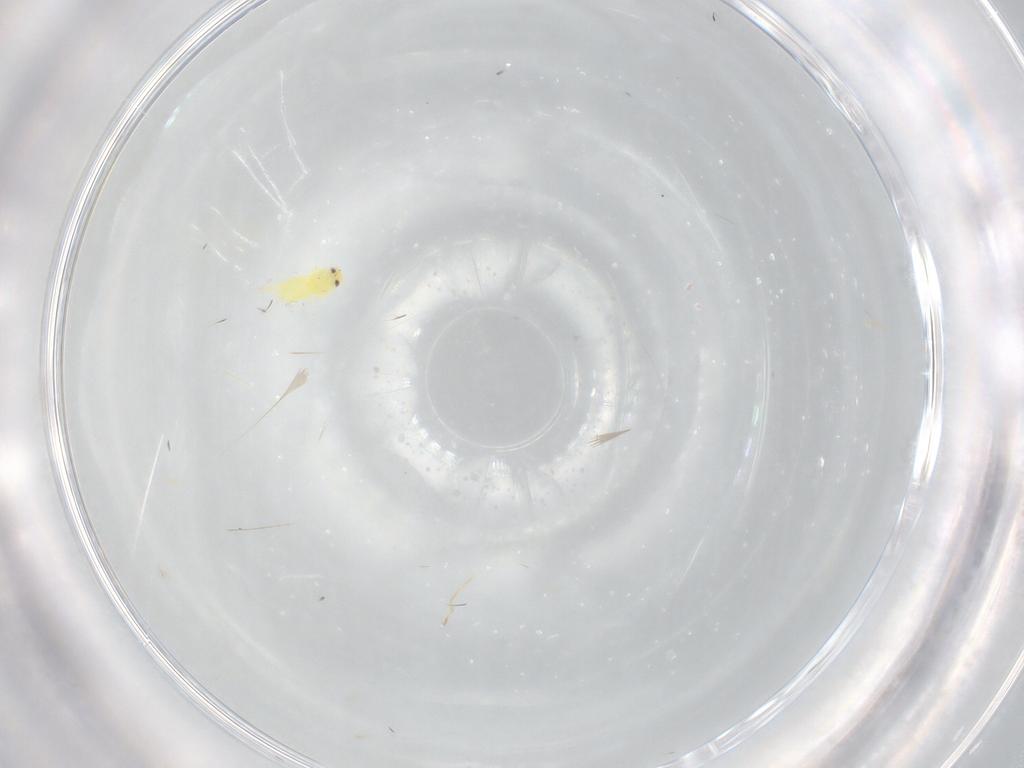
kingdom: Animalia
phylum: Arthropoda
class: Insecta
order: Hemiptera
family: Aleyrodidae
